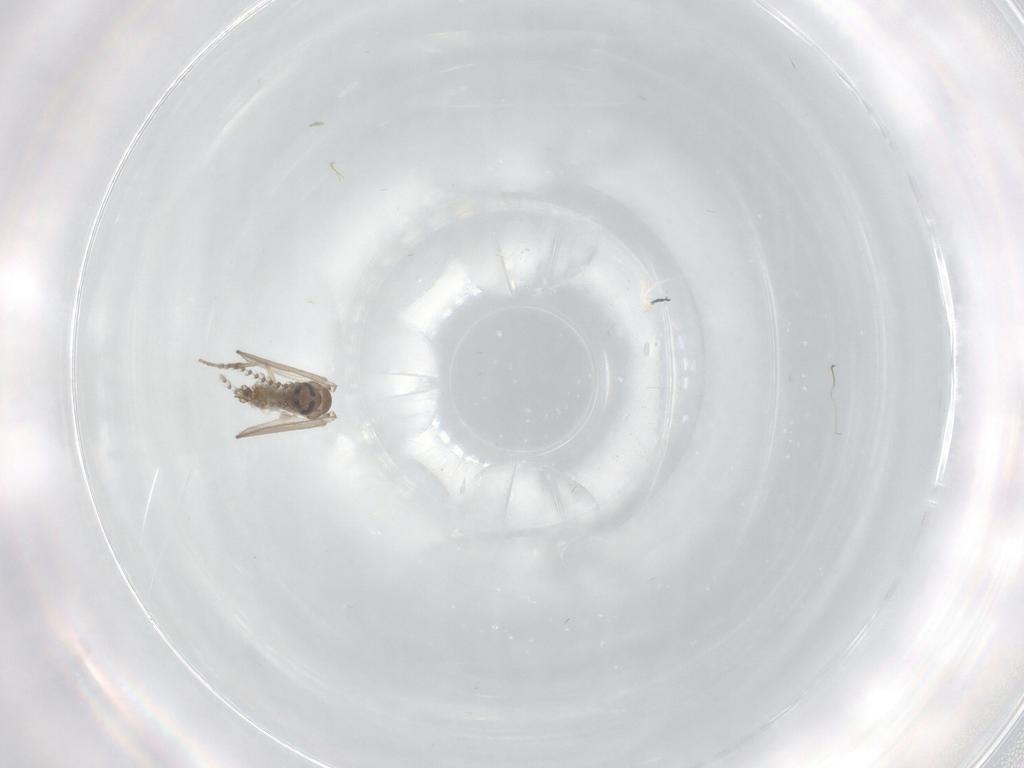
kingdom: Animalia
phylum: Arthropoda
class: Insecta
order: Diptera
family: Psychodidae
